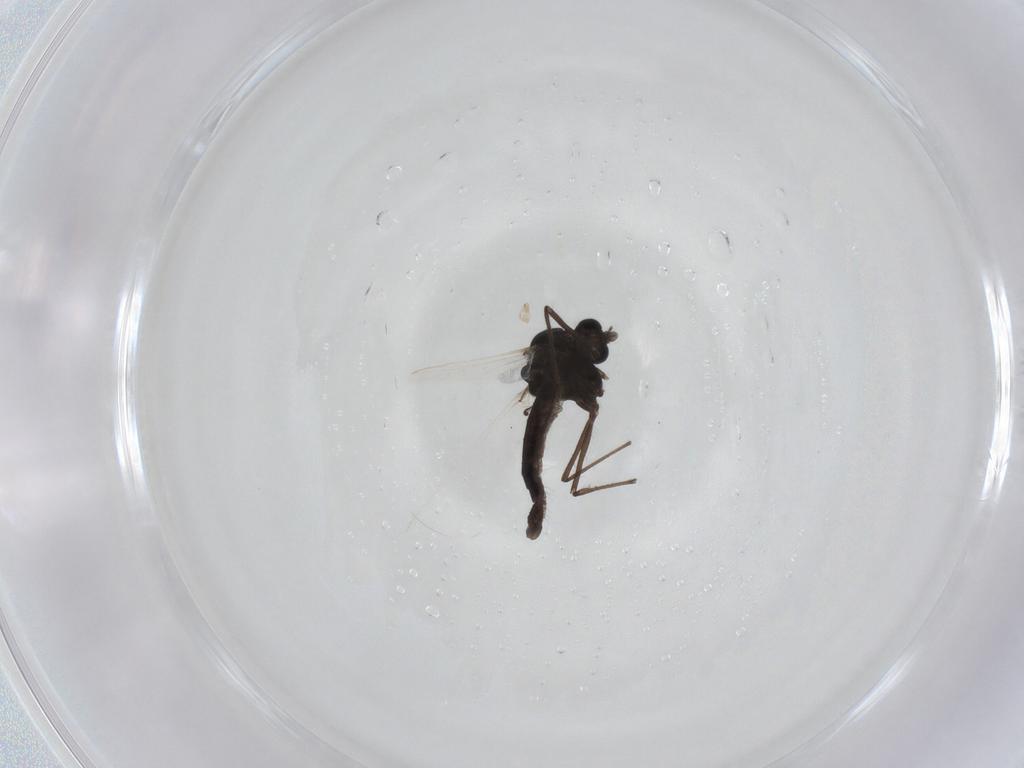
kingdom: Animalia
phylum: Arthropoda
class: Insecta
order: Diptera
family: Chironomidae
